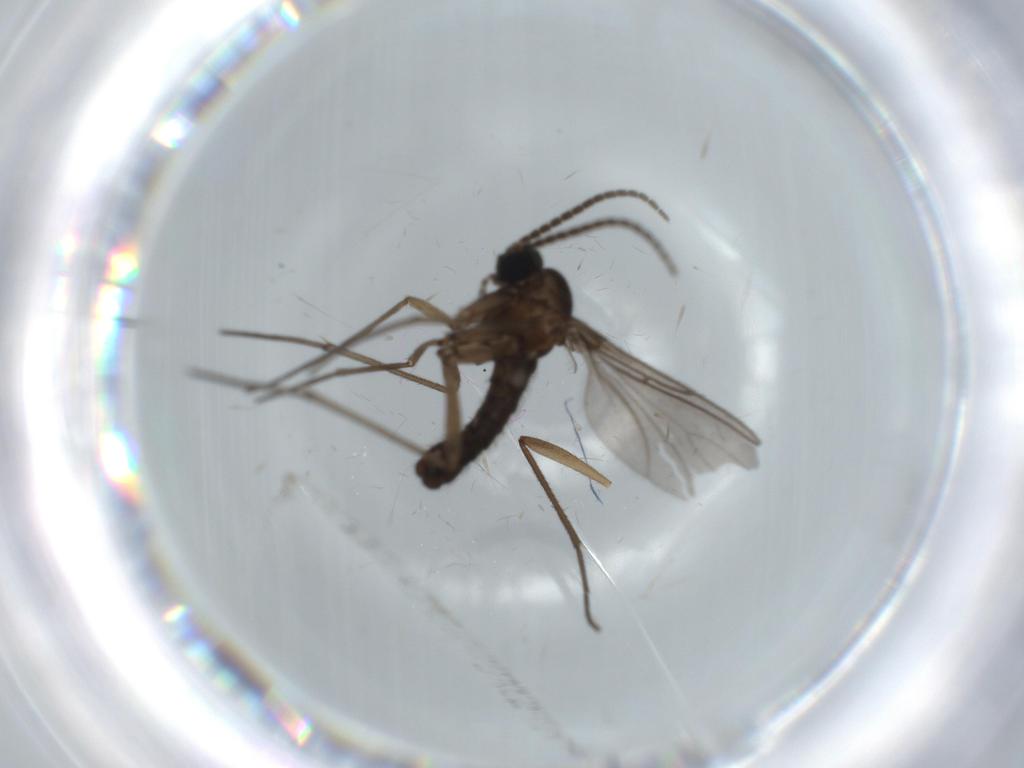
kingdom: Animalia
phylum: Arthropoda
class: Insecta
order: Diptera
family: Sciaridae
